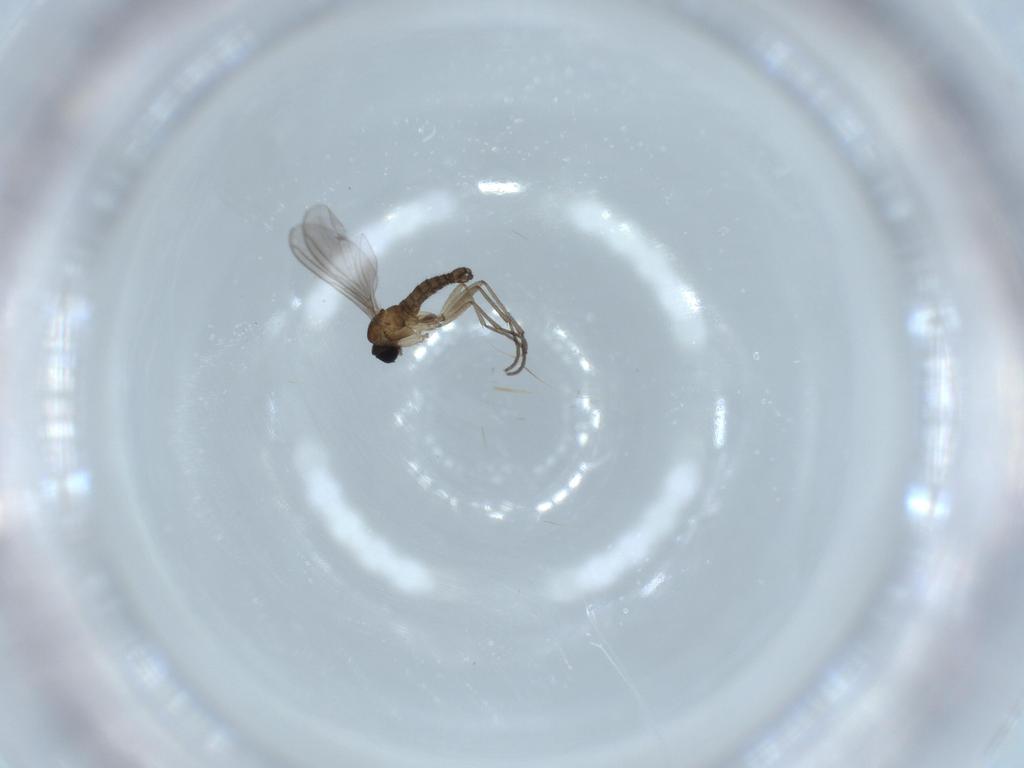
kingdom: Animalia
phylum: Arthropoda
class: Insecta
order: Diptera
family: Sciaridae
